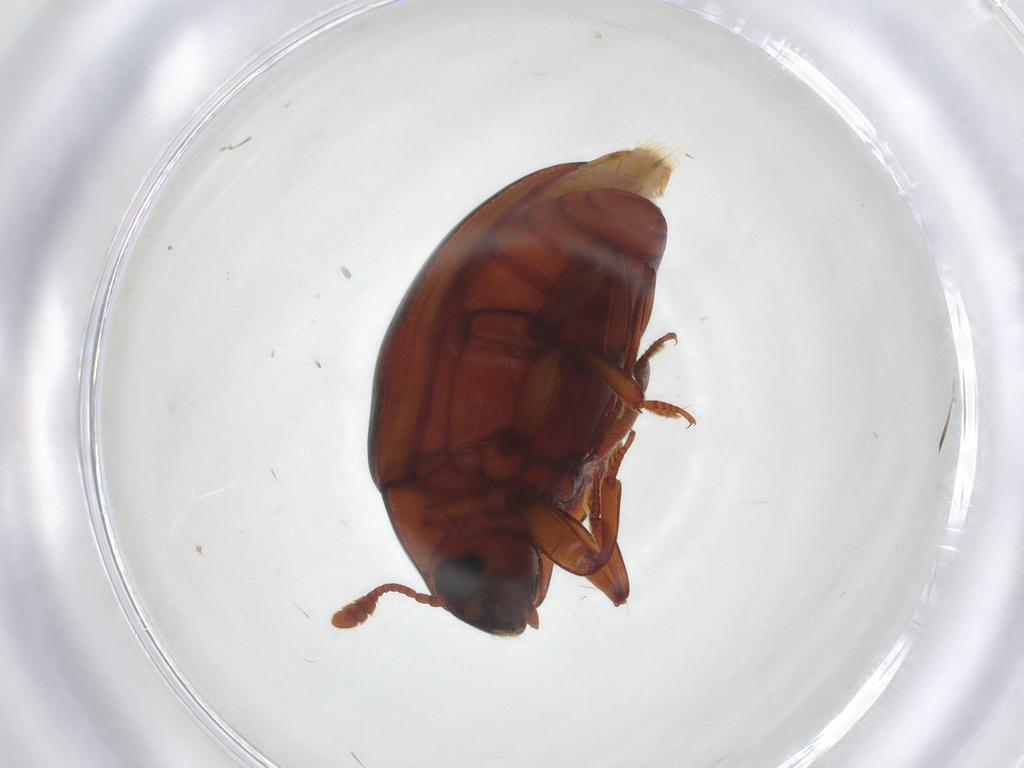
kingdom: Animalia
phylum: Arthropoda
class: Insecta
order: Coleoptera
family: Zopheridae
